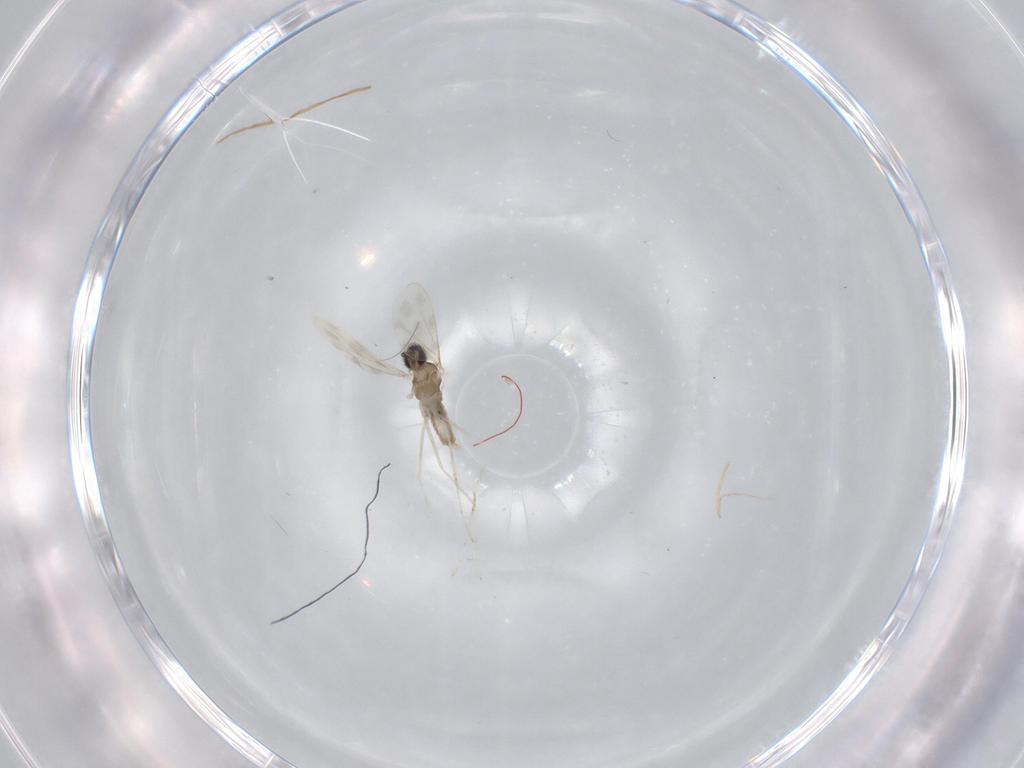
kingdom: Animalia
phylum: Arthropoda
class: Insecta
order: Diptera
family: Cecidomyiidae
